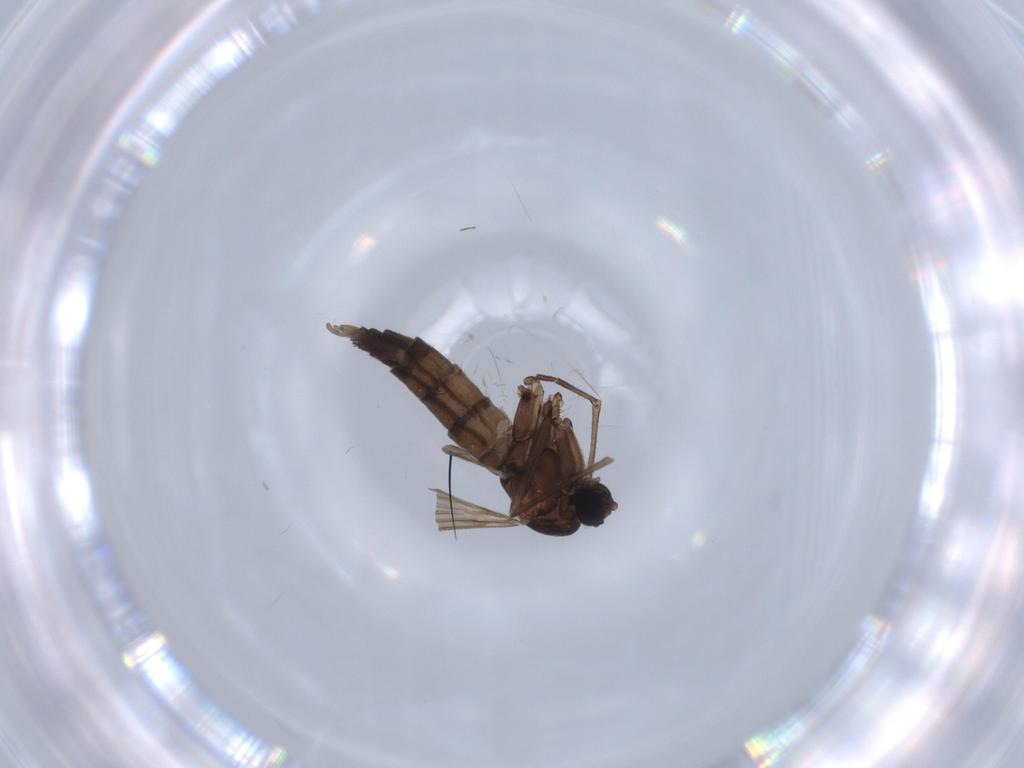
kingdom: Animalia
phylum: Arthropoda
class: Insecta
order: Diptera
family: Sciaridae
